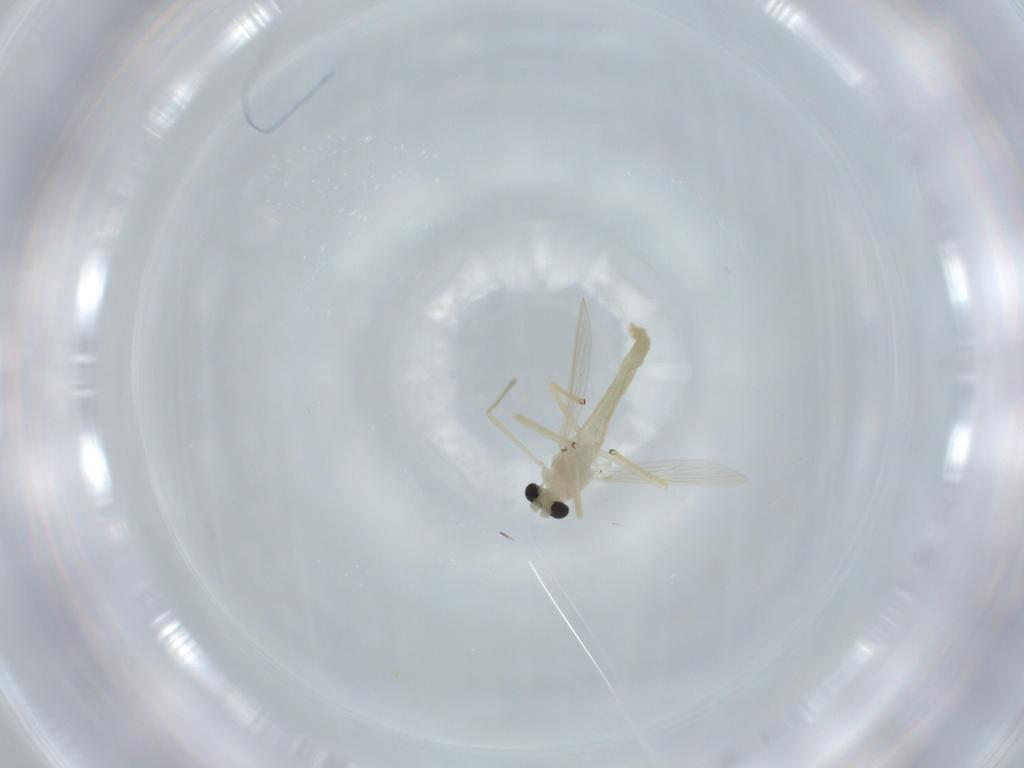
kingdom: Animalia
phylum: Arthropoda
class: Insecta
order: Diptera
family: Chironomidae
